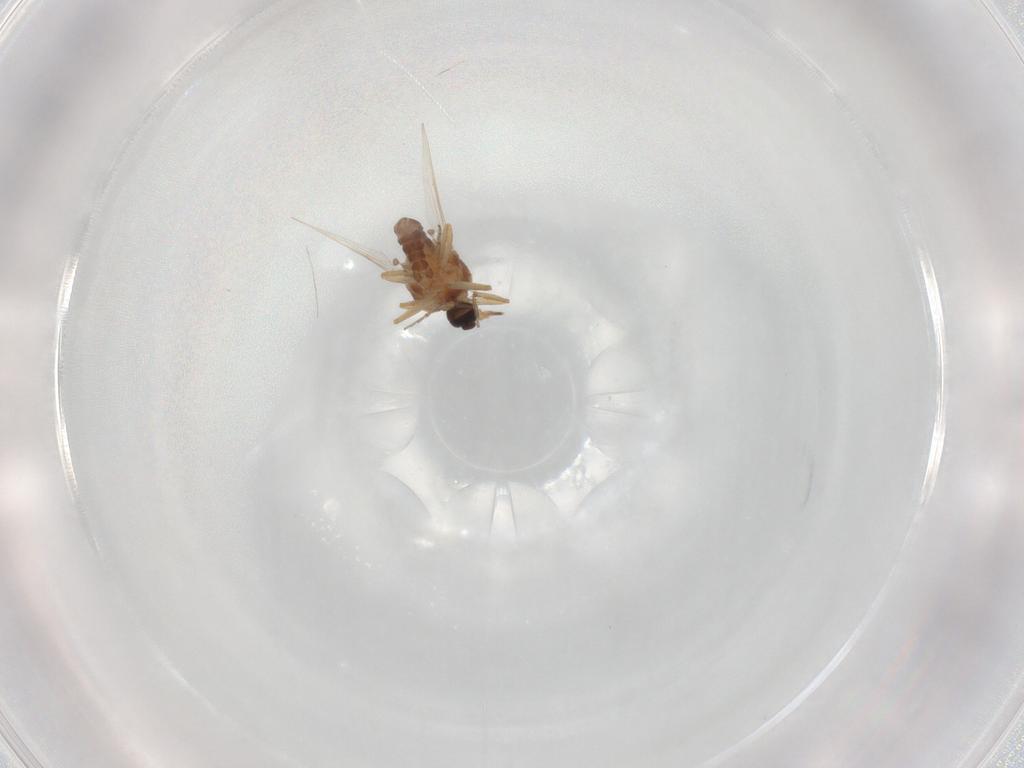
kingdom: Animalia
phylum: Arthropoda
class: Insecta
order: Diptera
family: Ceratopogonidae
